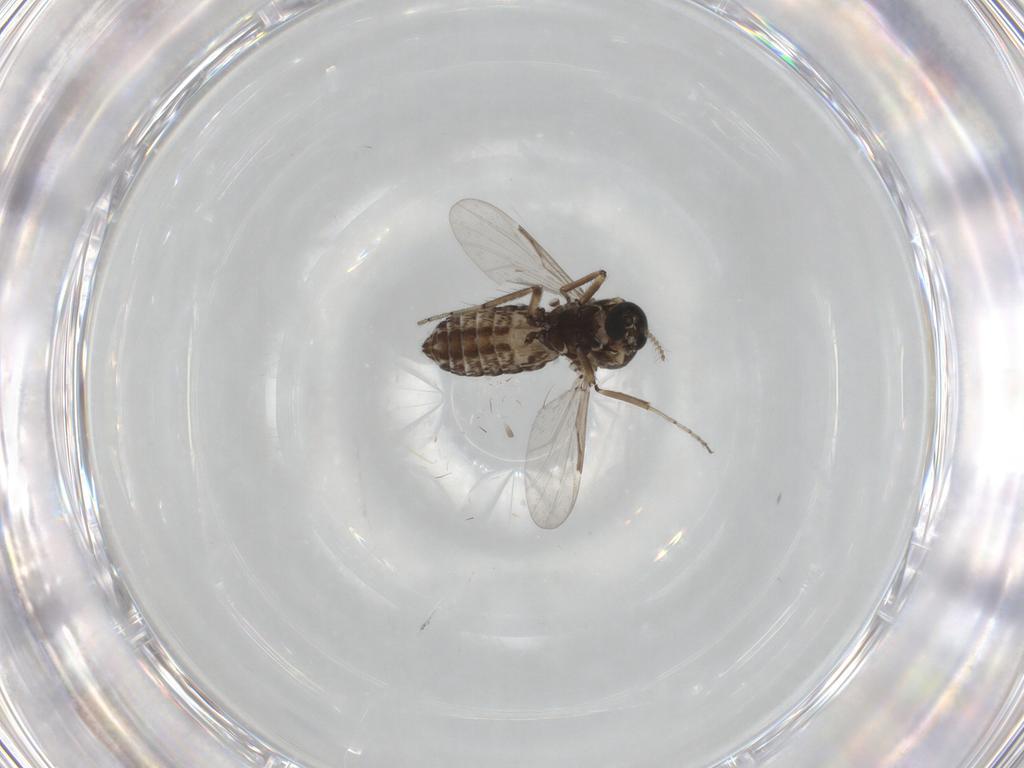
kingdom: Animalia
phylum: Arthropoda
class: Insecta
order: Diptera
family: Ceratopogonidae
